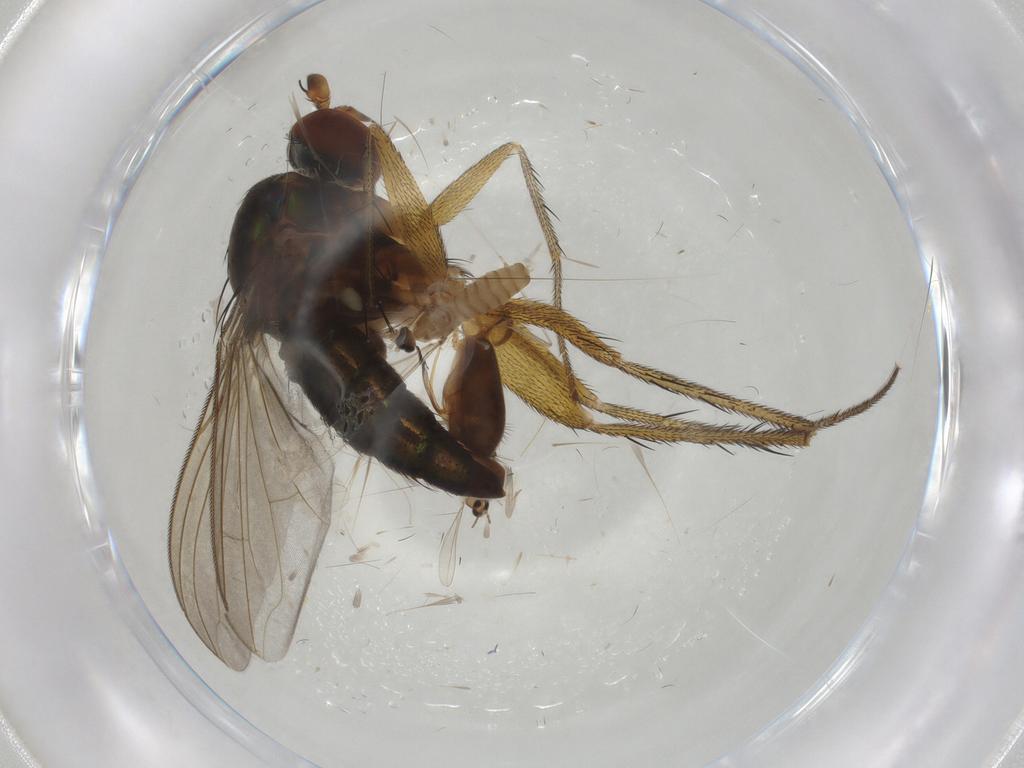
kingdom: Animalia
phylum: Arthropoda
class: Insecta
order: Diptera
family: Dolichopodidae
